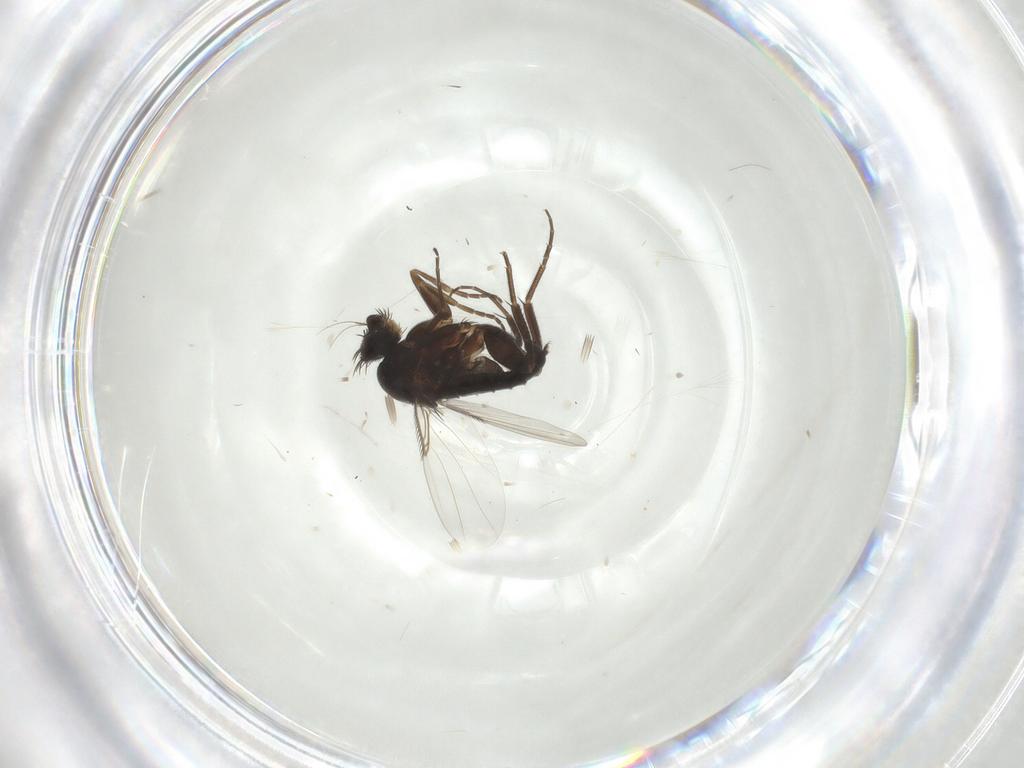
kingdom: Animalia
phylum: Arthropoda
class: Insecta
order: Diptera
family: Phoridae
